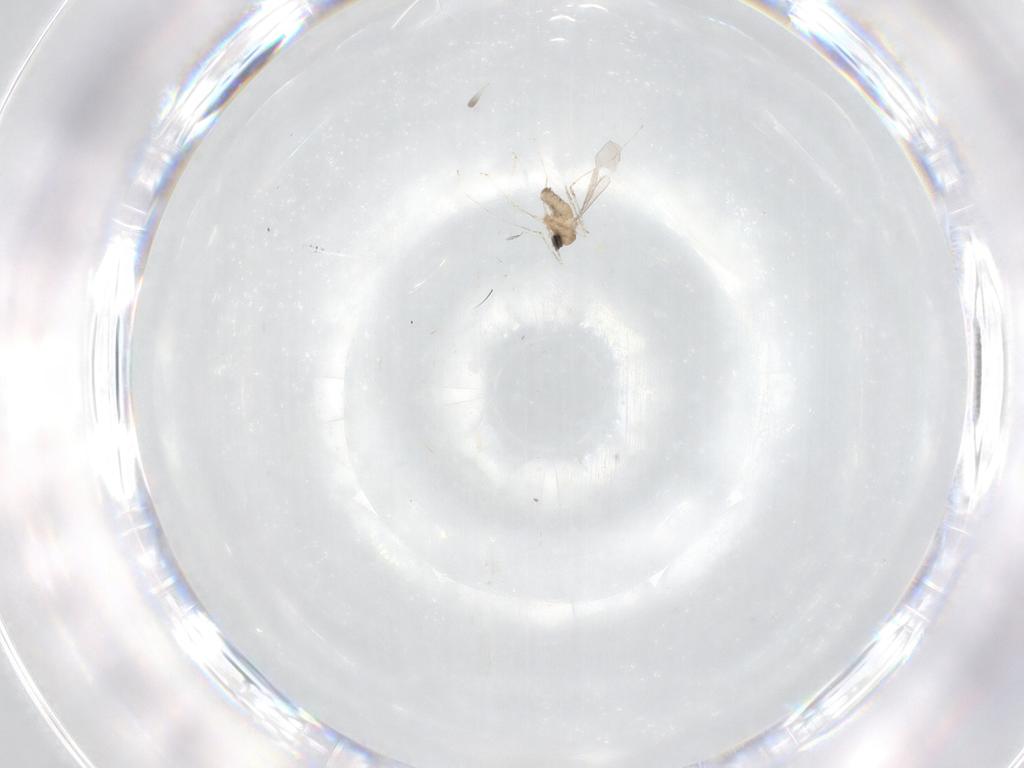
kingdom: Animalia
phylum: Arthropoda
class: Insecta
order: Diptera
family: Cecidomyiidae
